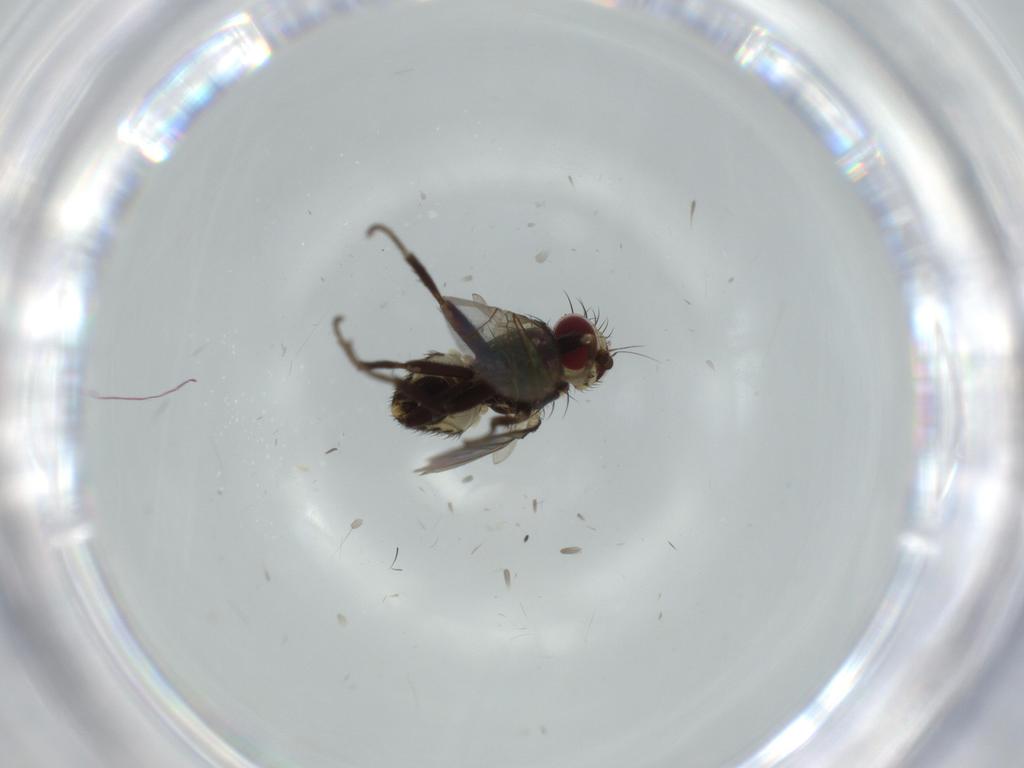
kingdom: Animalia
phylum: Arthropoda
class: Insecta
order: Diptera
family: Agromyzidae
